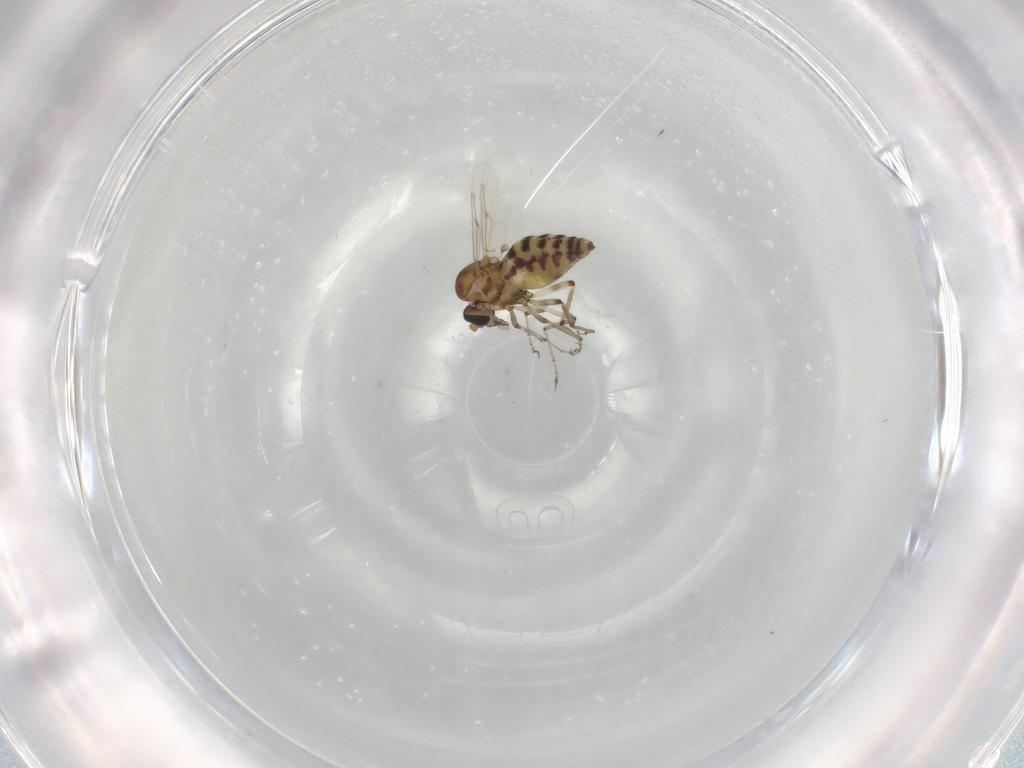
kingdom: Animalia
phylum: Arthropoda
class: Insecta
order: Diptera
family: Ceratopogonidae
